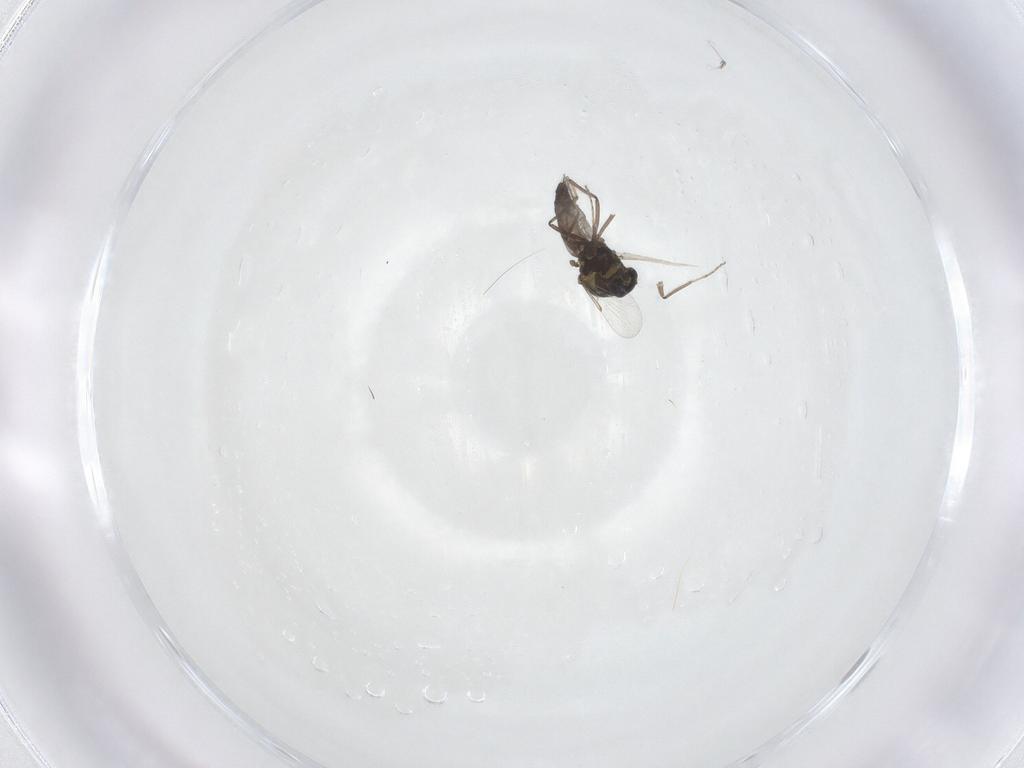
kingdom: Animalia
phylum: Arthropoda
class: Insecta
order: Diptera
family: Ceratopogonidae
